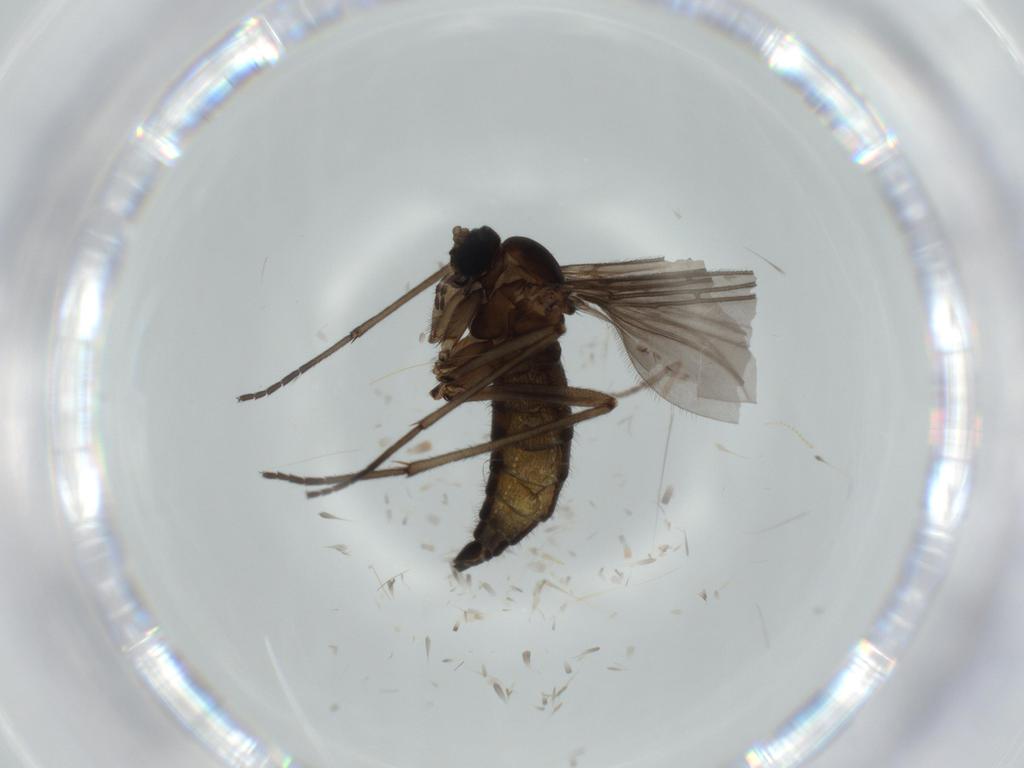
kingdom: Animalia
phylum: Arthropoda
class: Insecta
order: Diptera
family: Sciaridae
